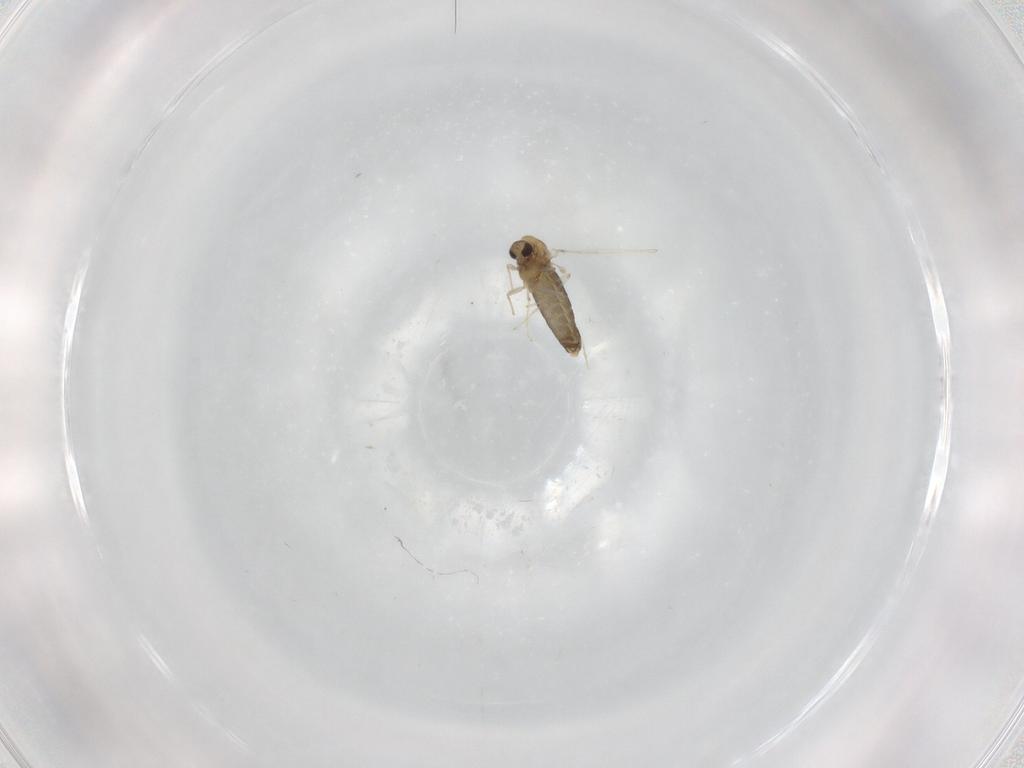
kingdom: Animalia
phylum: Arthropoda
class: Insecta
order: Diptera
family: Chironomidae
